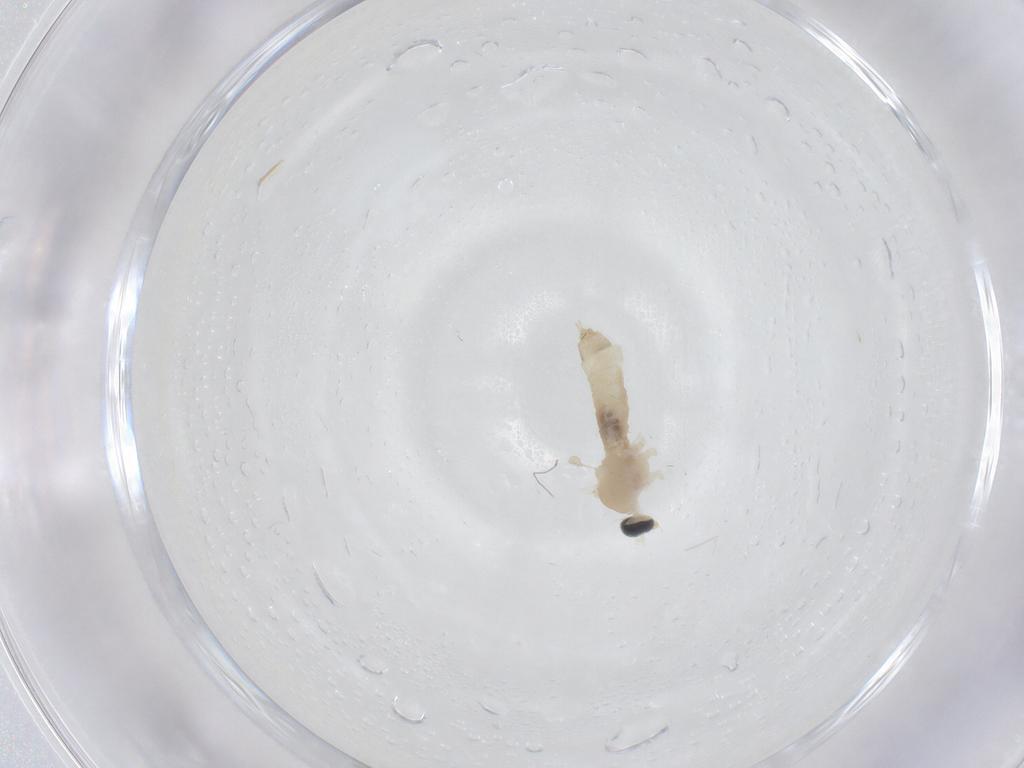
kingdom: Animalia
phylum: Arthropoda
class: Insecta
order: Diptera
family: Cecidomyiidae
